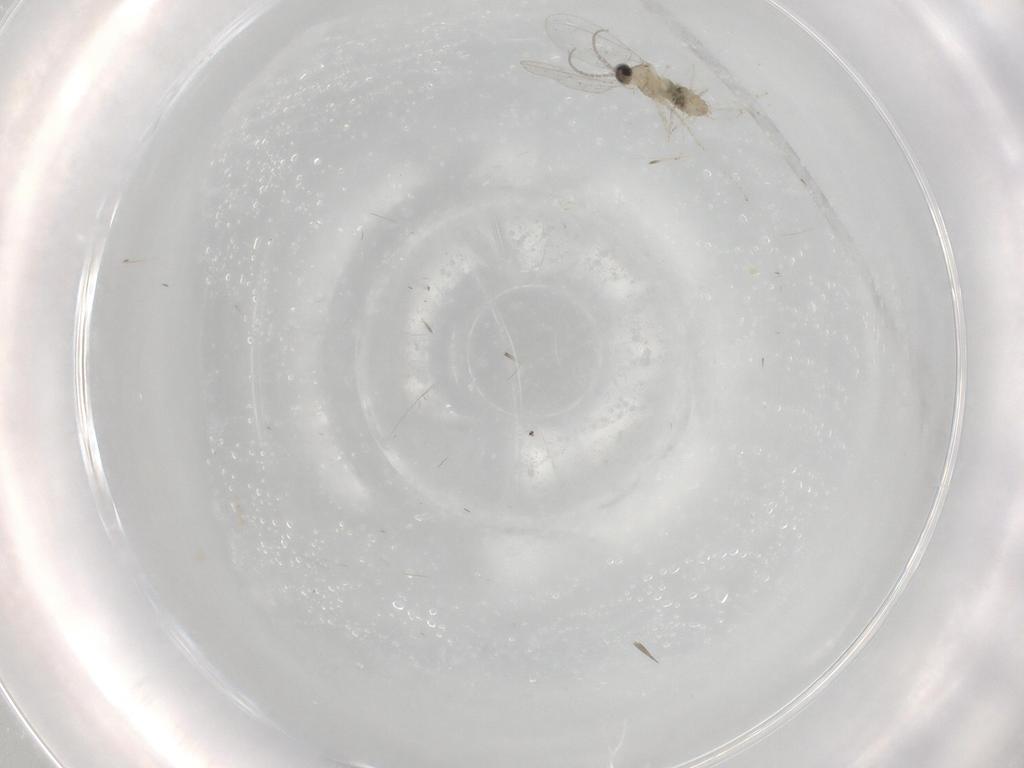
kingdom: Animalia
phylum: Arthropoda
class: Insecta
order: Diptera
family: Cecidomyiidae
